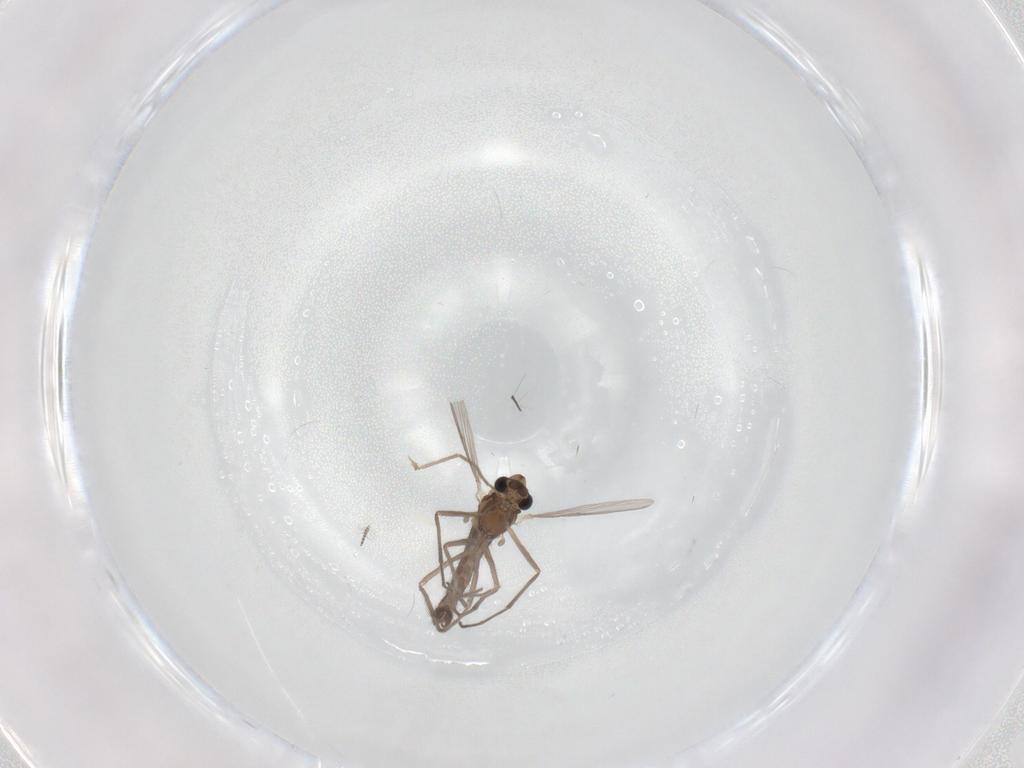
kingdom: Animalia
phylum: Arthropoda
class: Insecta
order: Diptera
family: Chironomidae
